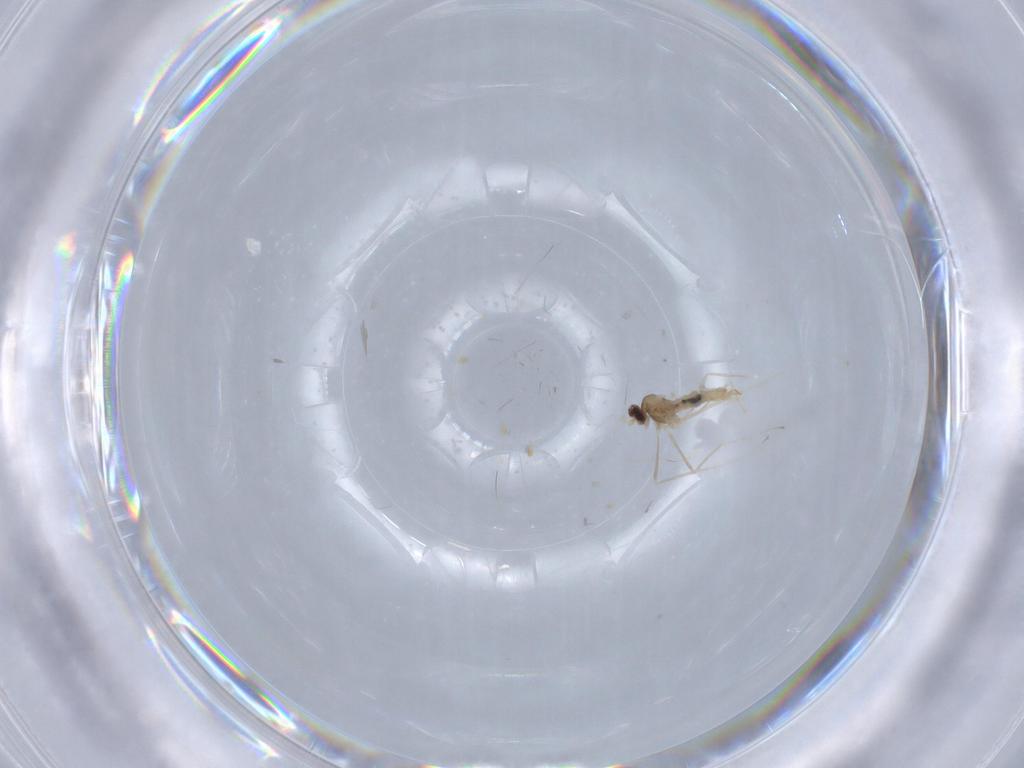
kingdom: Animalia
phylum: Arthropoda
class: Insecta
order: Diptera
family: Cecidomyiidae
